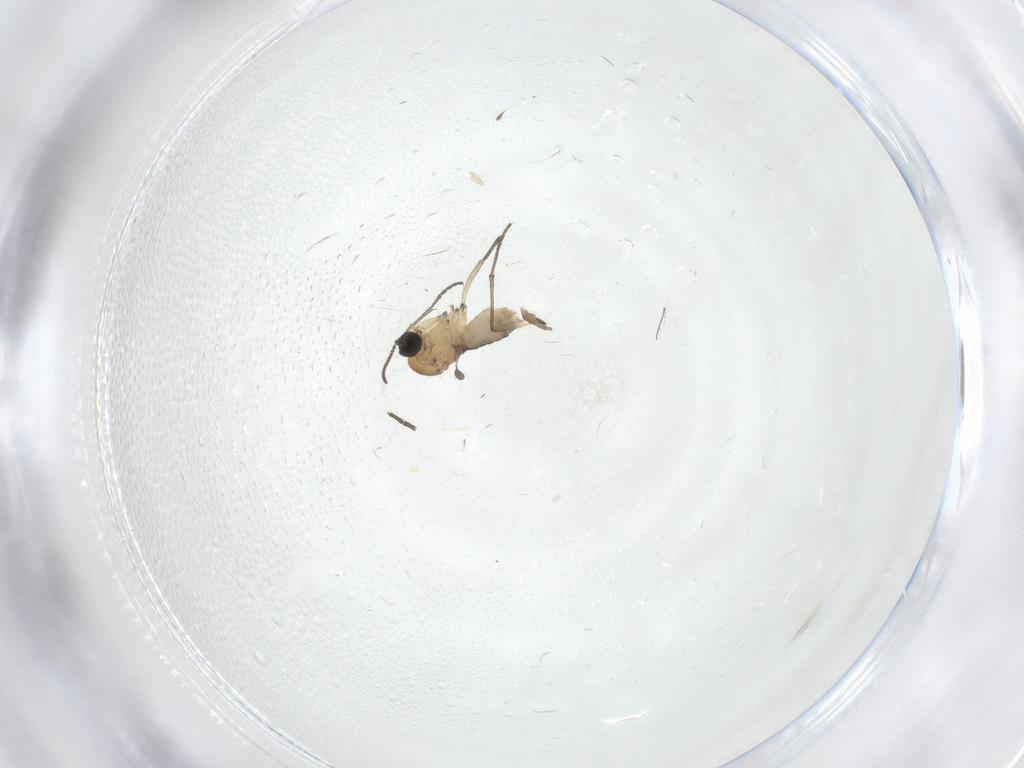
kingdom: Animalia
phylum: Arthropoda
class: Insecta
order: Diptera
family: Sciaridae
